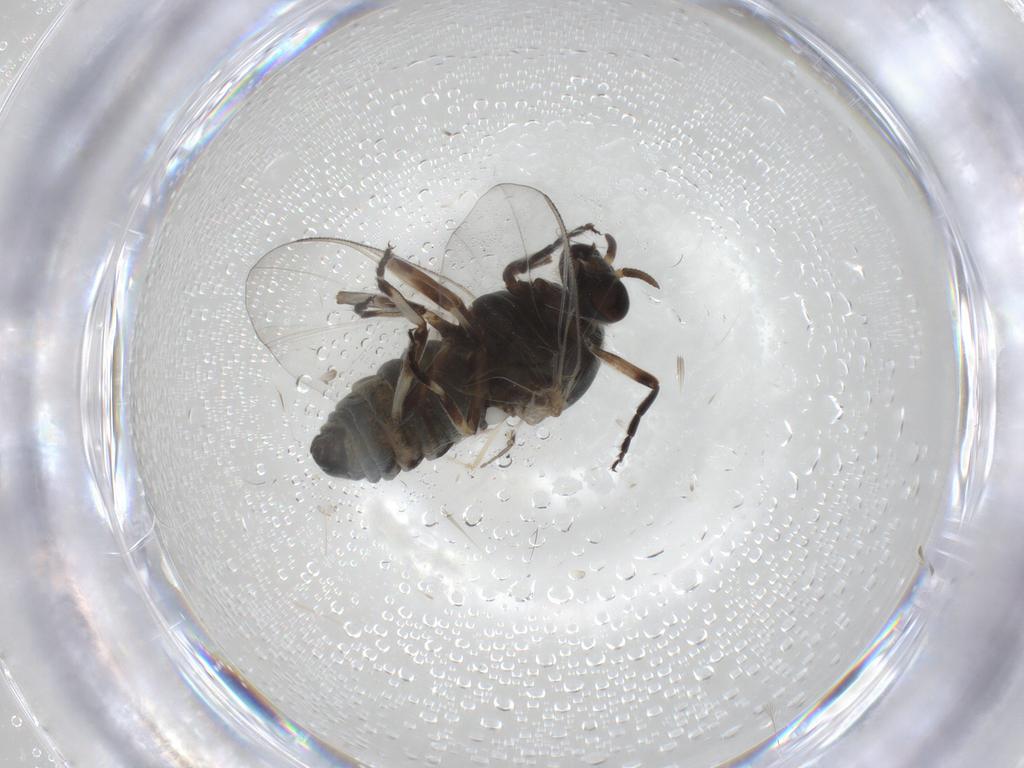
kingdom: Animalia
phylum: Arthropoda
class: Insecta
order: Diptera
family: Simuliidae
